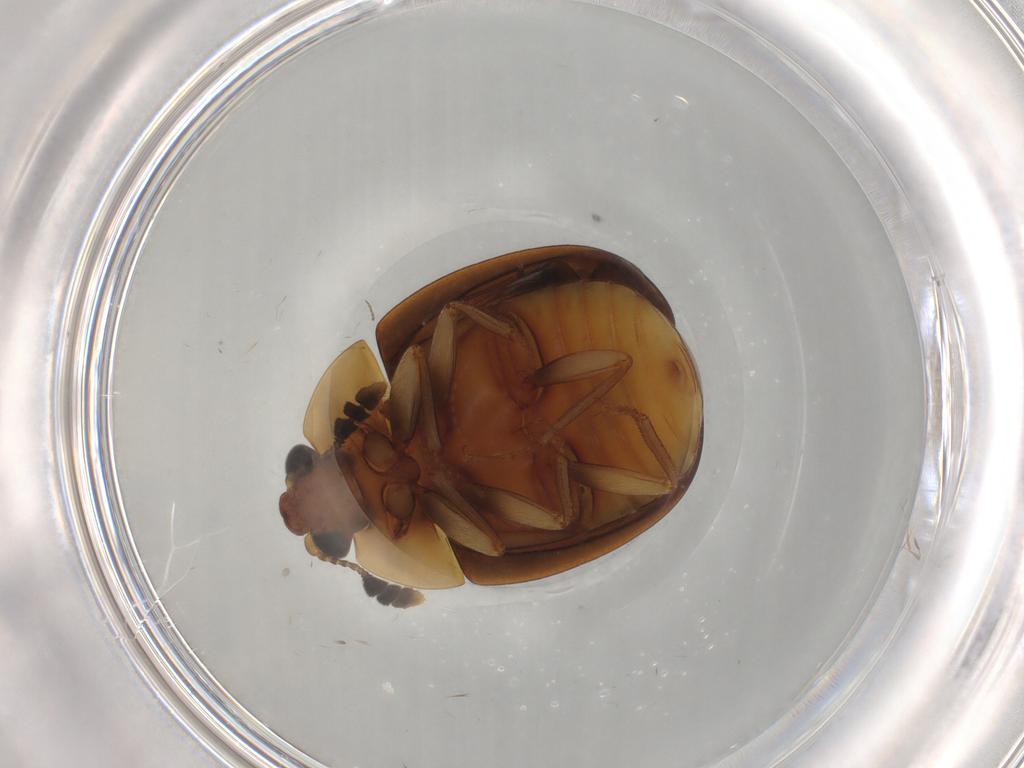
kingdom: Animalia
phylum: Arthropoda
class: Insecta
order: Coleoptera
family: Nitidulidae
